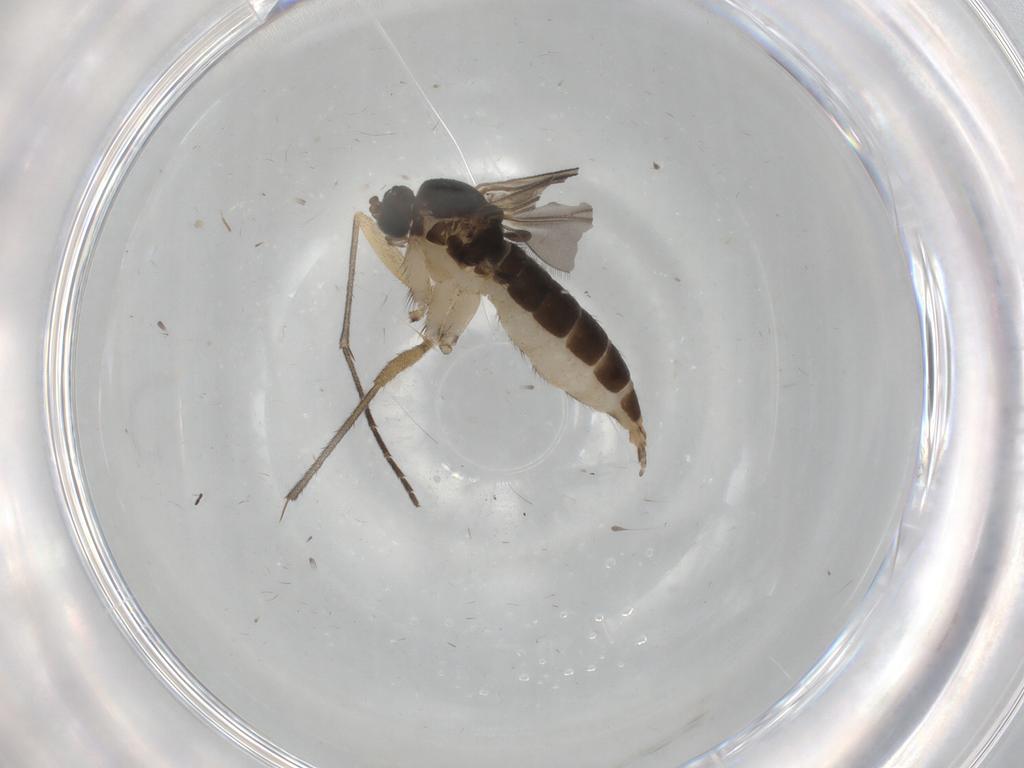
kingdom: Animalia
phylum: Arthropoda
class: Insecta
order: Diptera
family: Sciaridae
